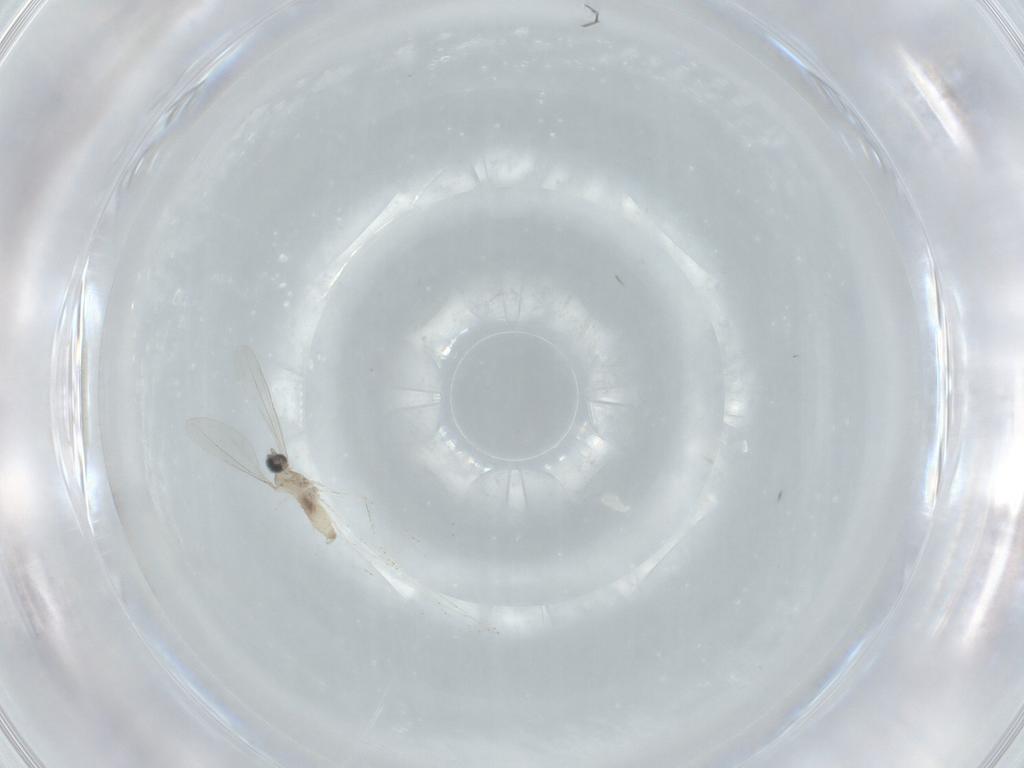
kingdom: Animalia
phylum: Arthropoda
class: Insecta
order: Diptera
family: Cecidomyiidae
